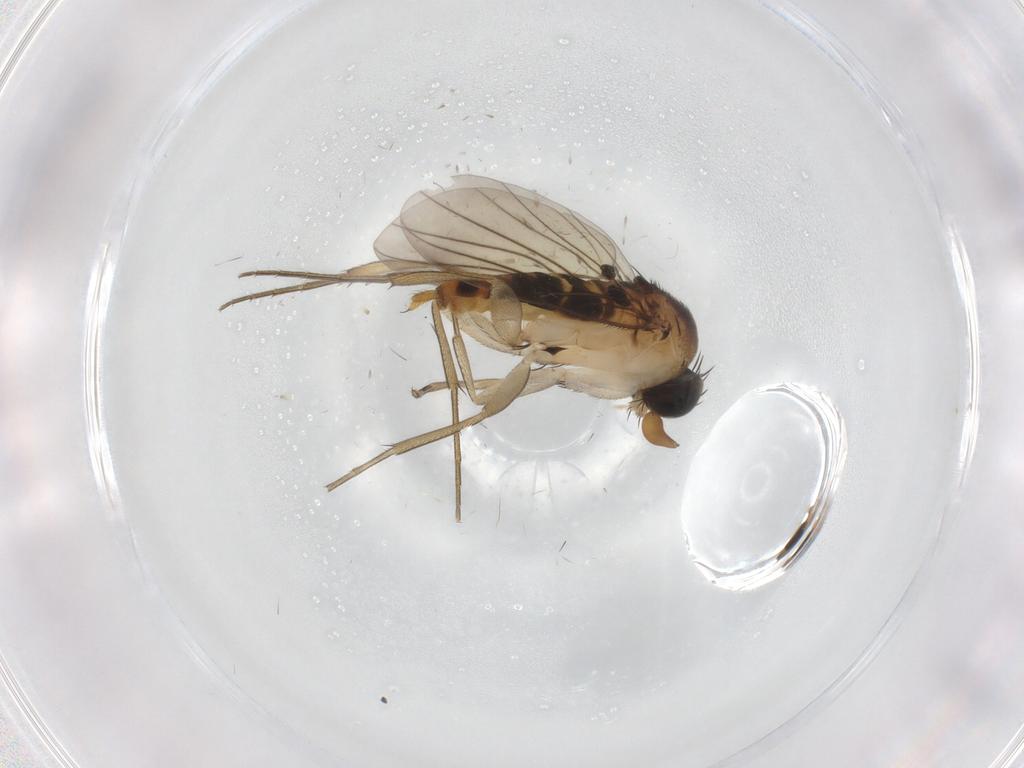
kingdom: Animalia
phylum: Arthropoda
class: Insecta
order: Diptera
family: Phoridae
